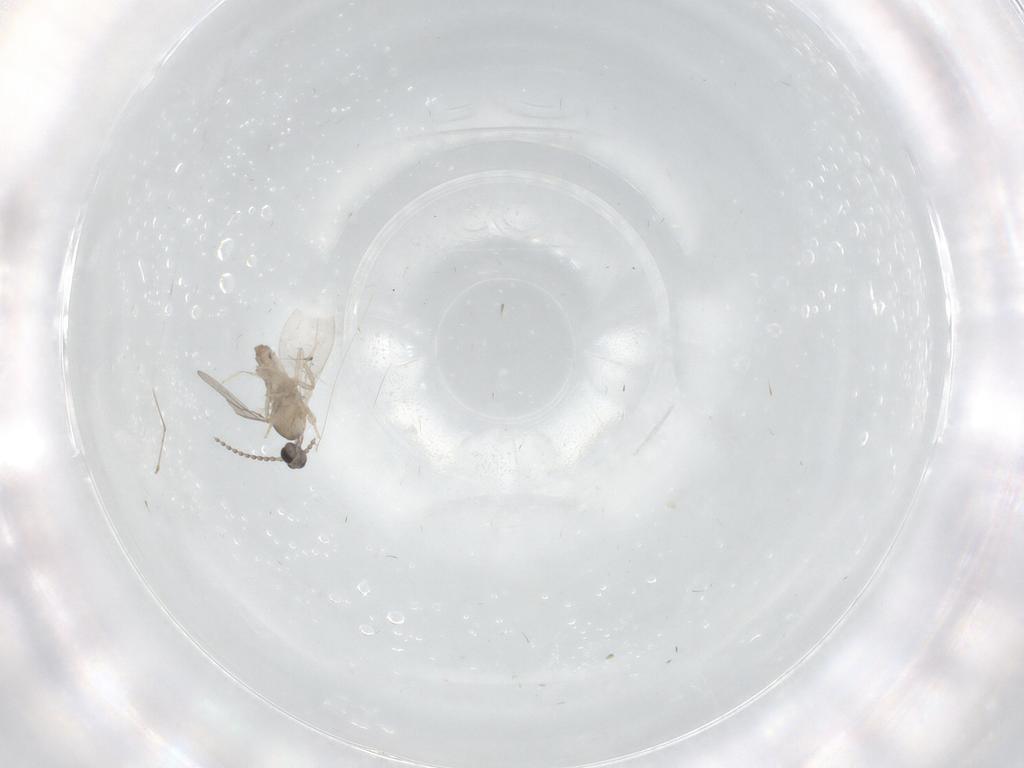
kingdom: Animalia
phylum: Arthropoda
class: Insecta
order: Diptera
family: Cecidomyiidae
